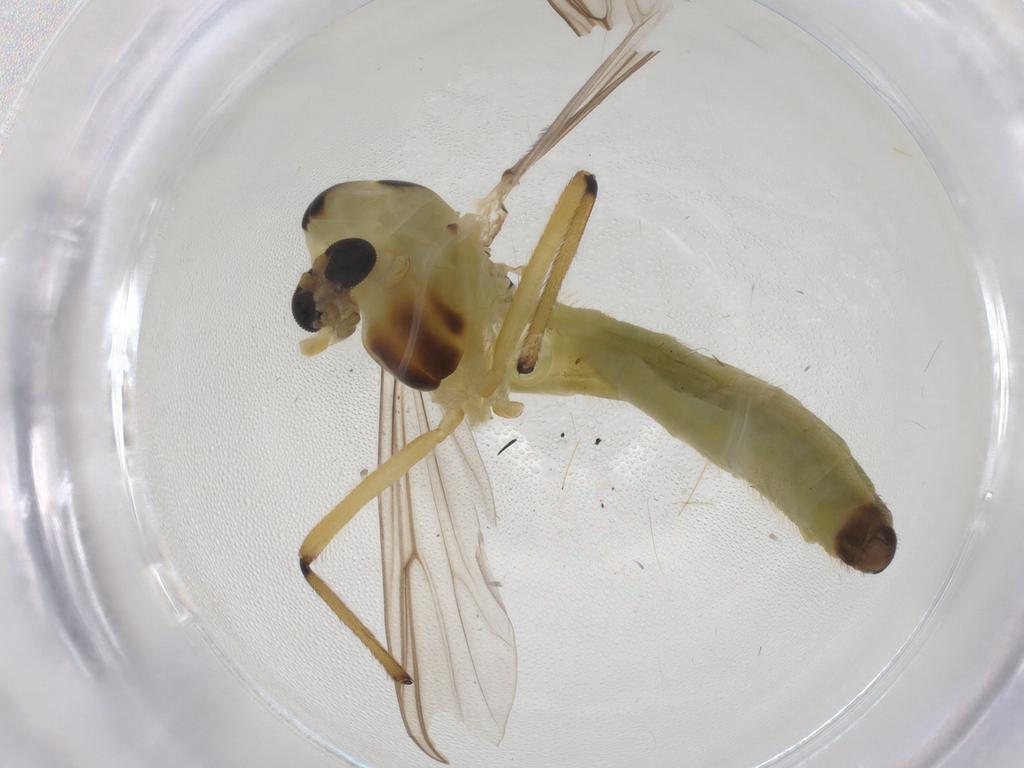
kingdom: Animalia
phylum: Arthropoda
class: Insecta
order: Diptera
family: Chironomidae
